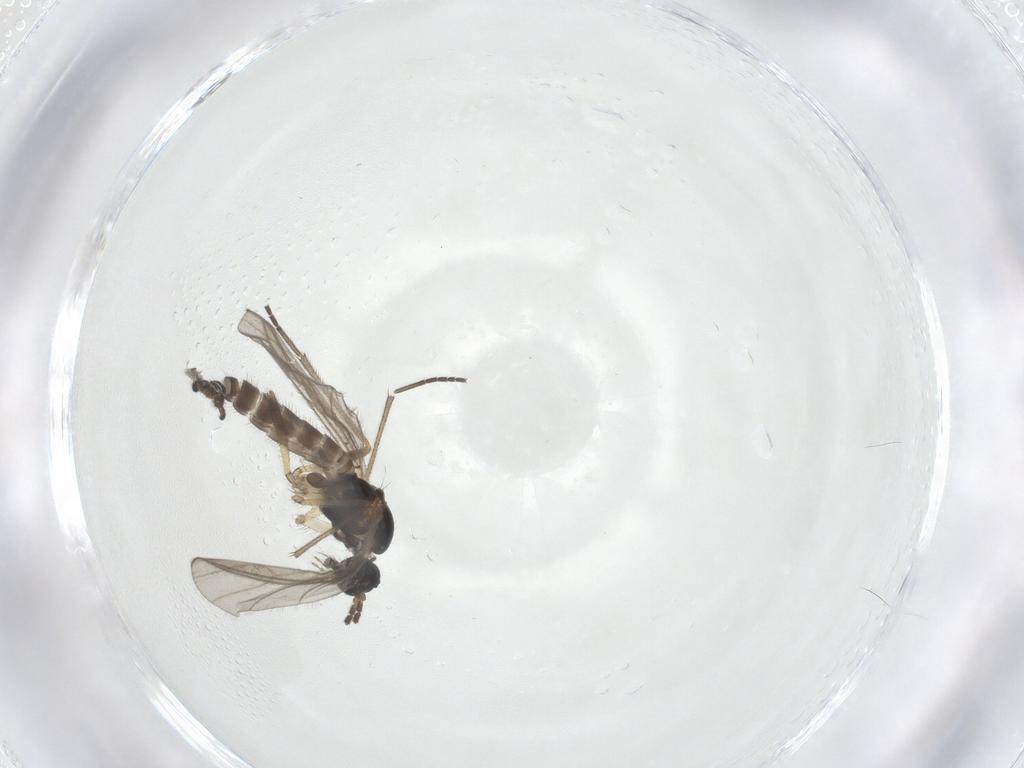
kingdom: Animalia
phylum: Arthropoda
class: Insecta
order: Diptera
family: Sciaridae
